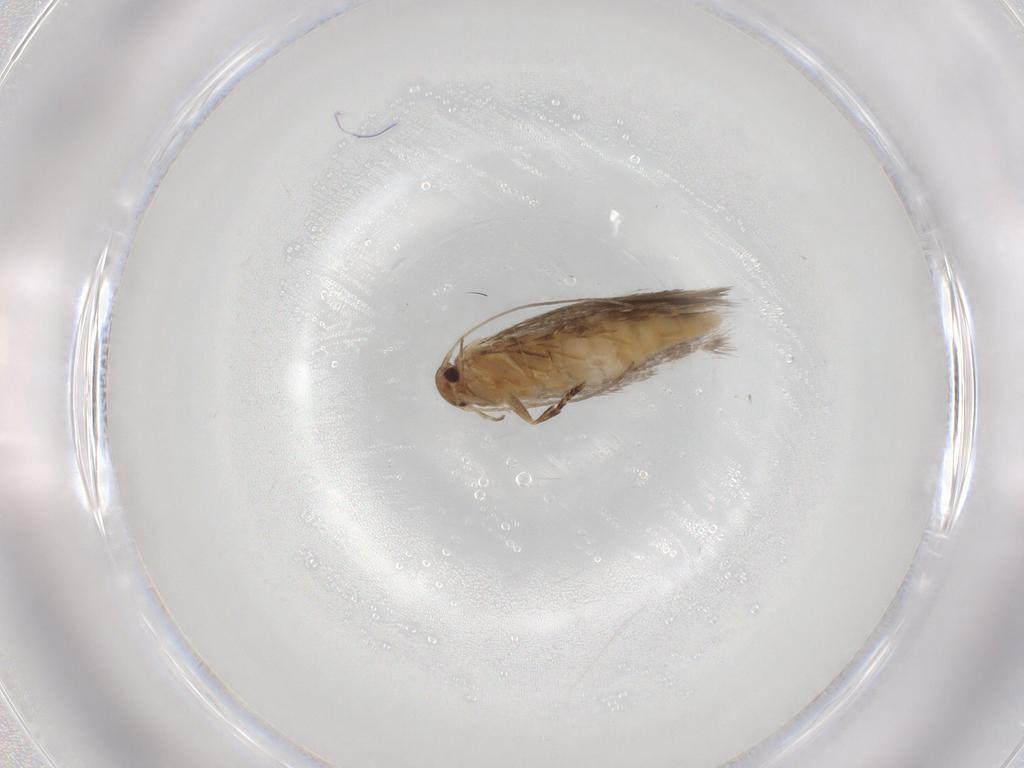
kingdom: Animalia
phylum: Arthropoda
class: Insecta
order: Lepidoptera
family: Elachistidae
